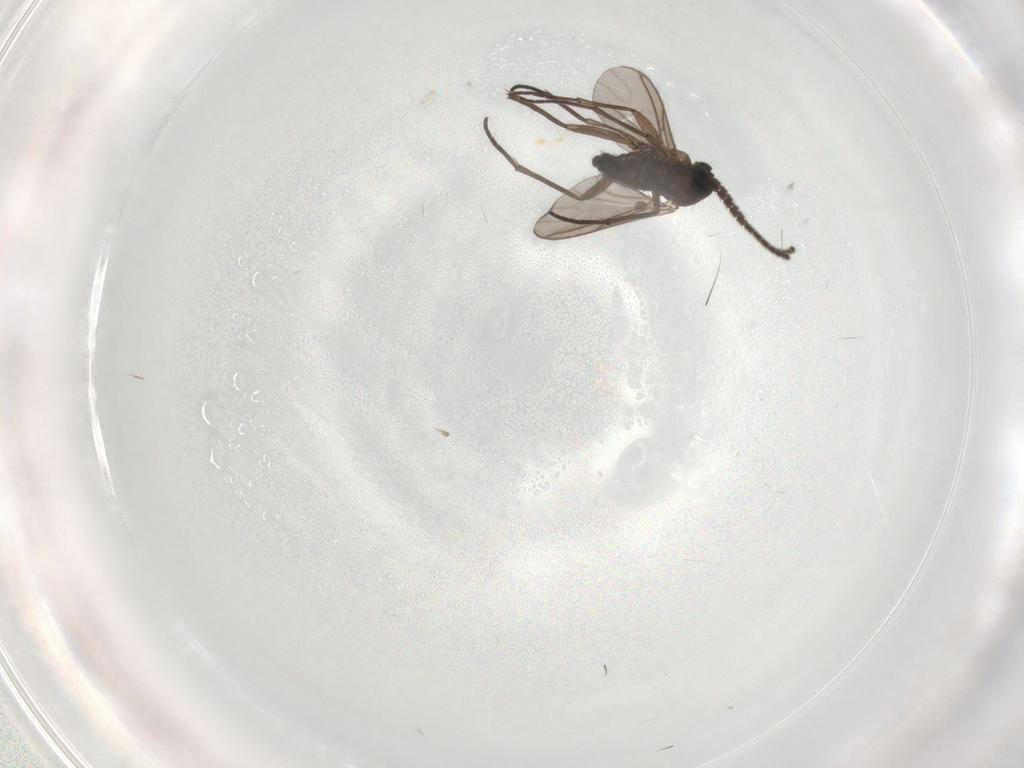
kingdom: Animalia
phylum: Arthropoda
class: Insecta
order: Diptera
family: Sciaridae
